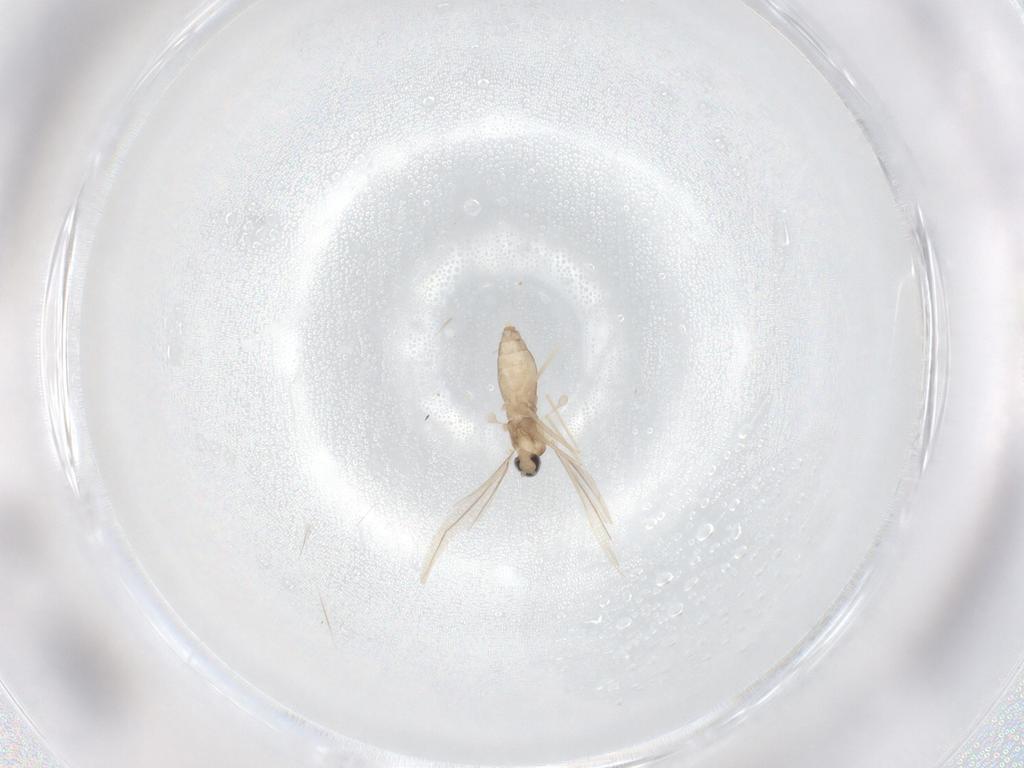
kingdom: Animalia
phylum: Arthropoda
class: Insecta
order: Diptera
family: Cecidomyiidae
